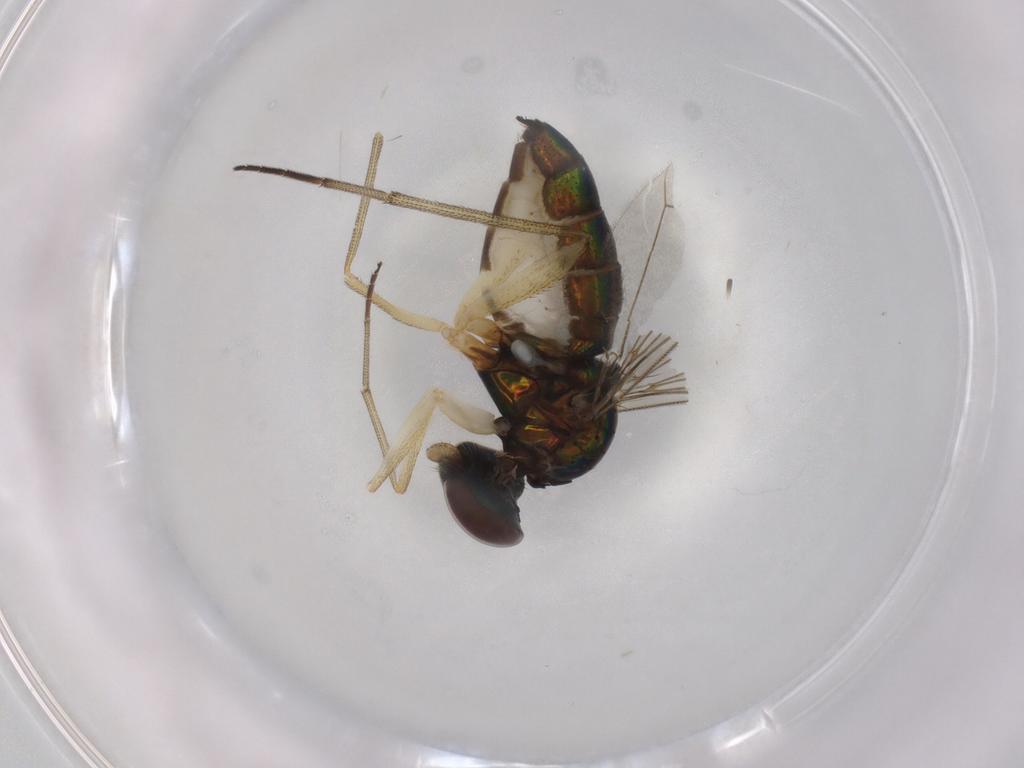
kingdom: Animalia
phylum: Arthropoda
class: Insecta
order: Diptera
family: Dolichopodidae
